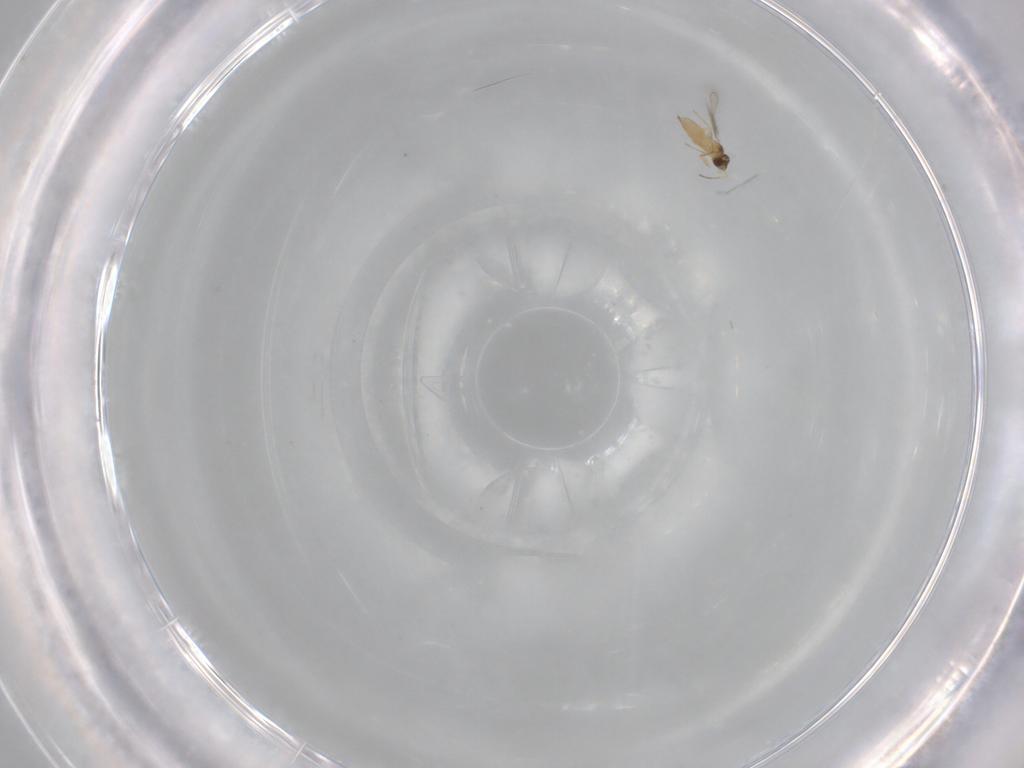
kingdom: Animalia
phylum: Arthropoda
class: Insecta
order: Hymenoptera
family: Mymaridae
